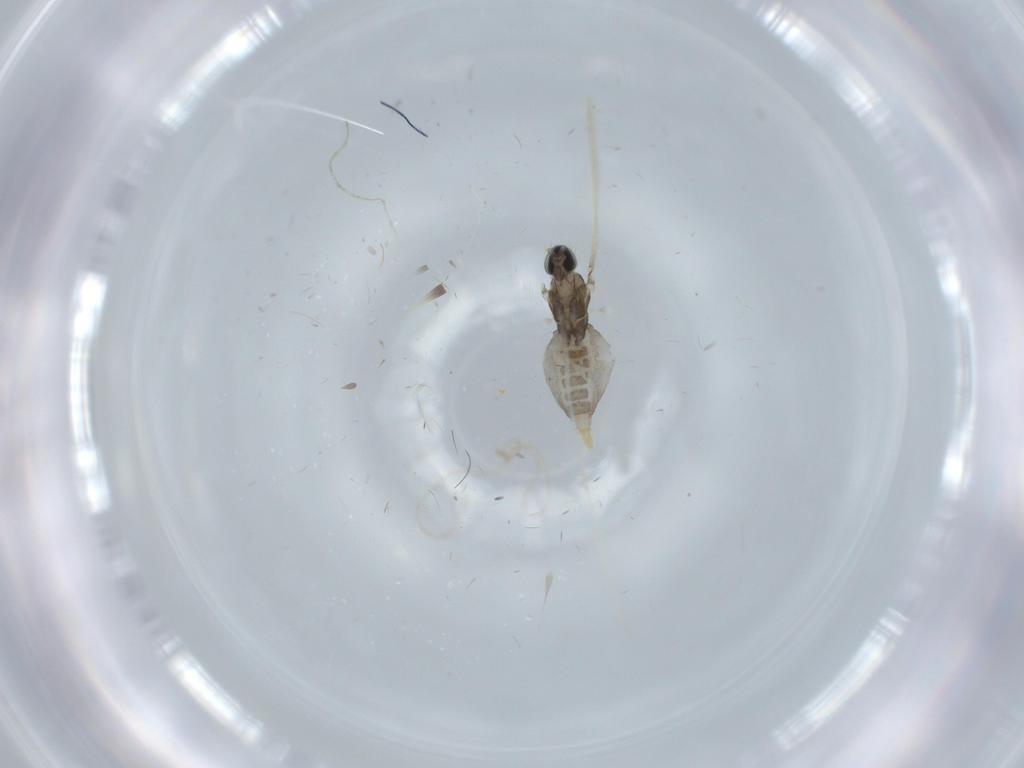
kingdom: Animalia
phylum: Arthropoda
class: Insecta
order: Diptera
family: Cecidomyiidae
